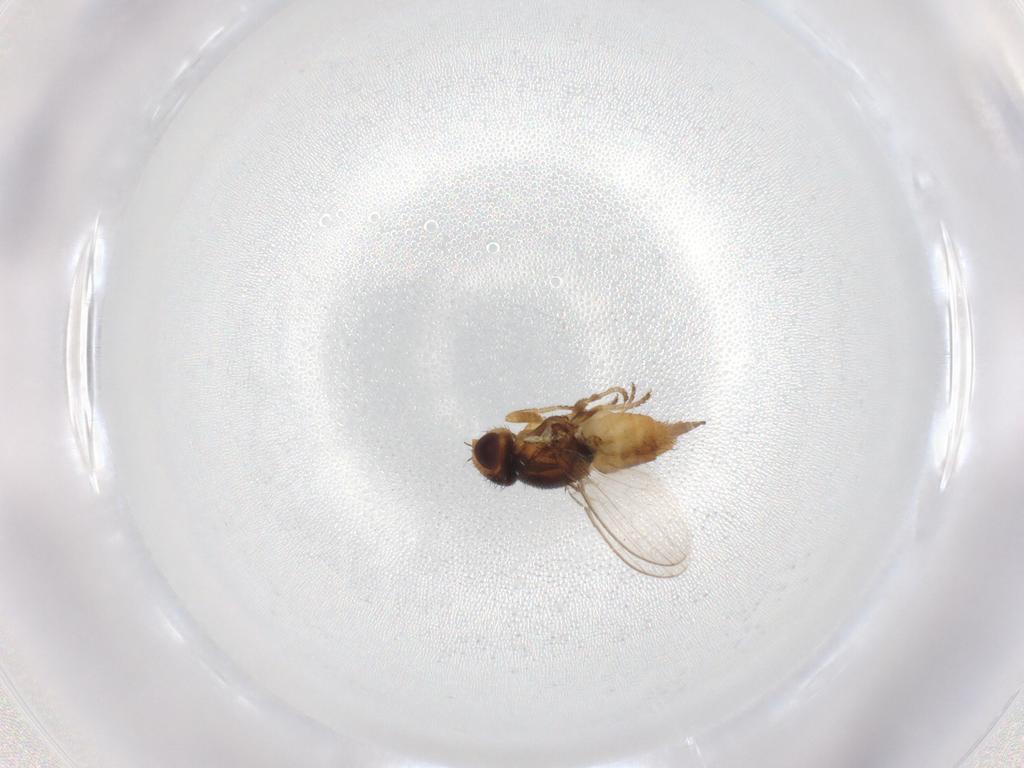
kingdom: Animalia
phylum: Arthropoda
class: Insecta
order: Diptera
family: Chloropidae
